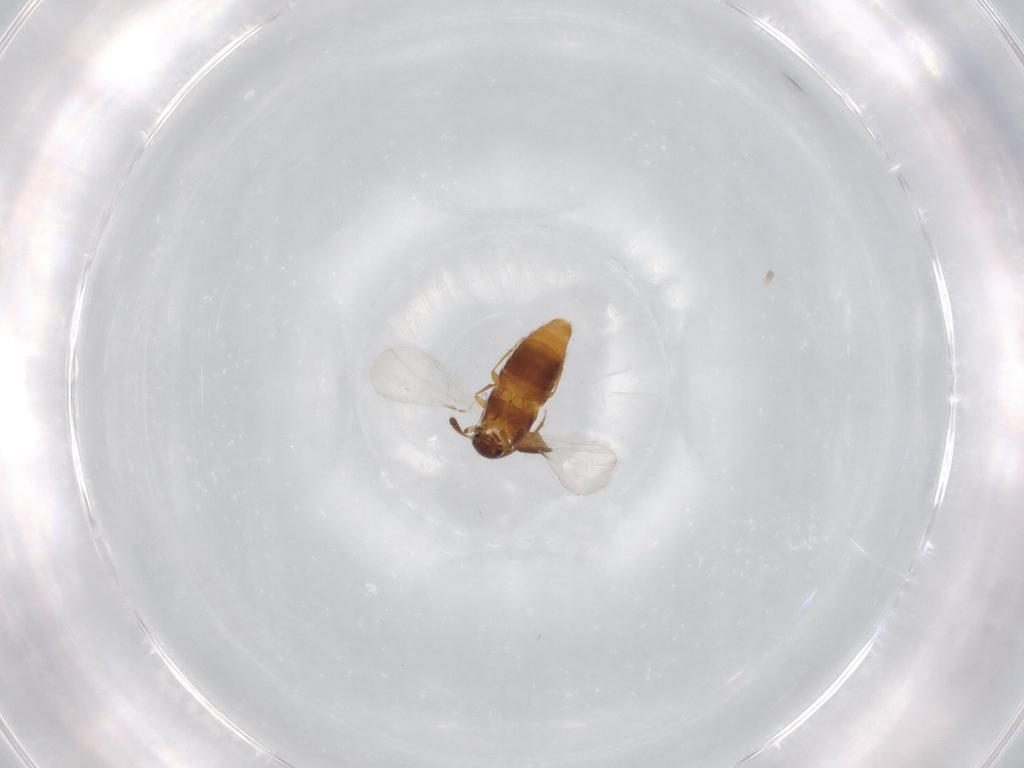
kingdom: Animalia
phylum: Arthropoda
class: Insecta
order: Coleoptera
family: Staphylinidae
